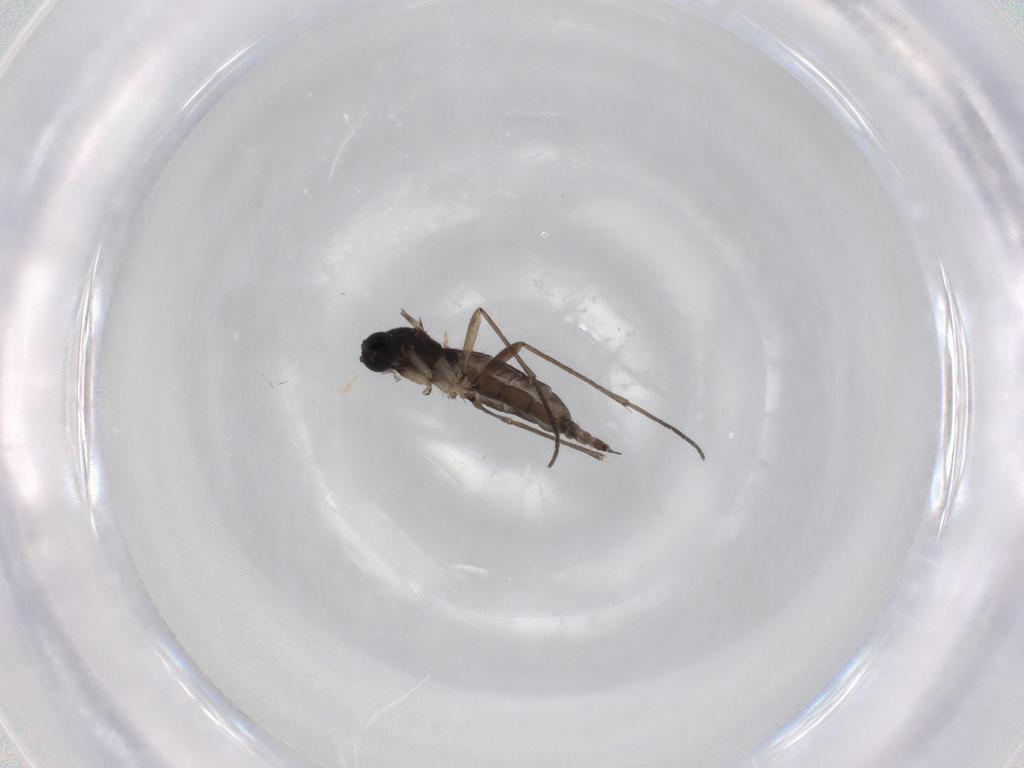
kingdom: Animalia
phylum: Arthropoda
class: Insecta
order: Diptera
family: Sciaridae
